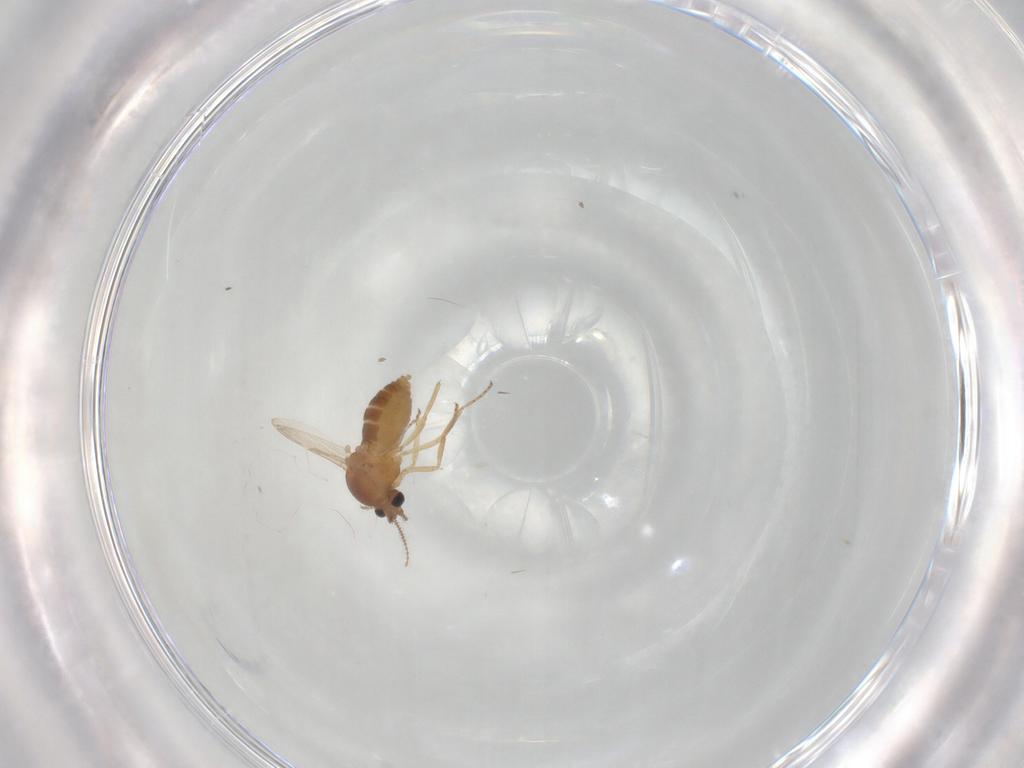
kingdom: Animalia
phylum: Arthropoda
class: Insecta
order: Diptera
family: Ceratopogonidae
